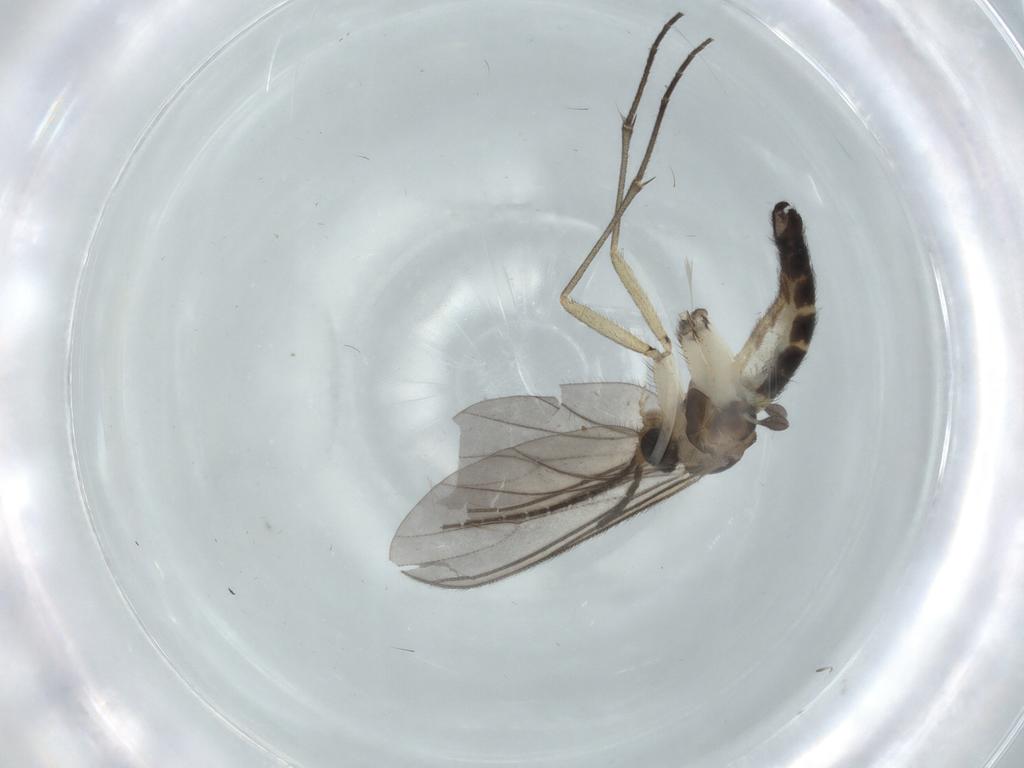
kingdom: Animalia
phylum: Arthropoda
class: Insecta
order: Diptera
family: Sciaridae
